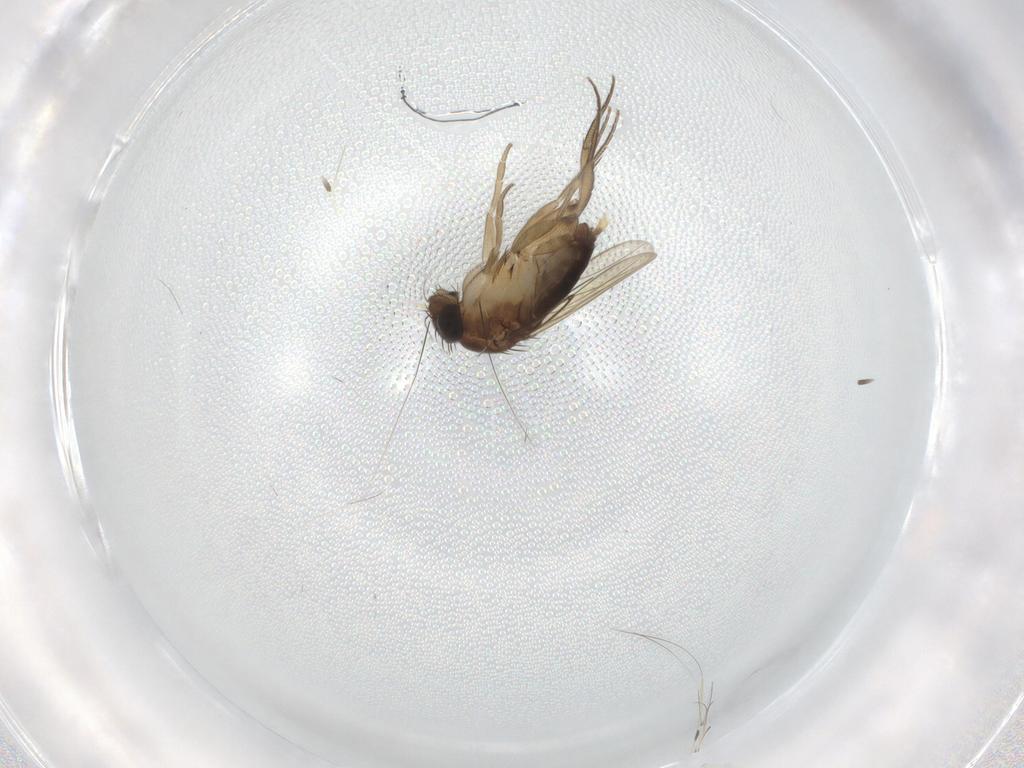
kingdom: Animalia
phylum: Arthropoda
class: Insecta
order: Diptera
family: Phoridae
